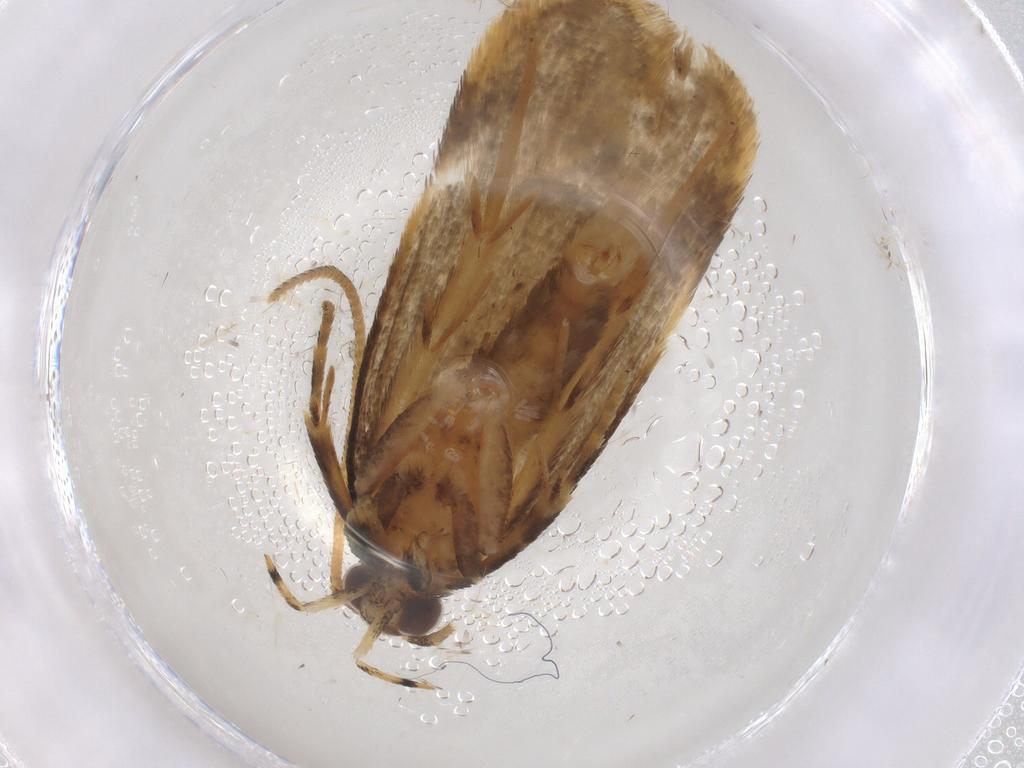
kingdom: Animalia
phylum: Arthropoda
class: Insecta
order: Lepidoptera
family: Gelechiidae
